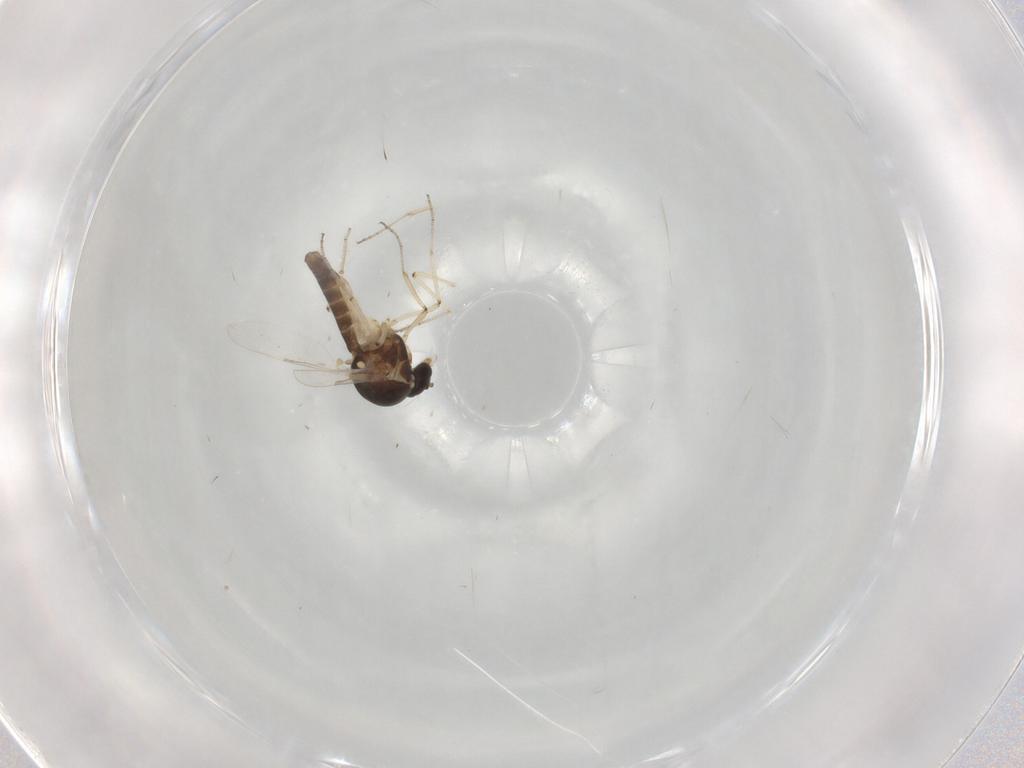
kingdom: Animalia
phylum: Arthropoda
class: Insecta
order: Diptera
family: Ceratopogonidae
